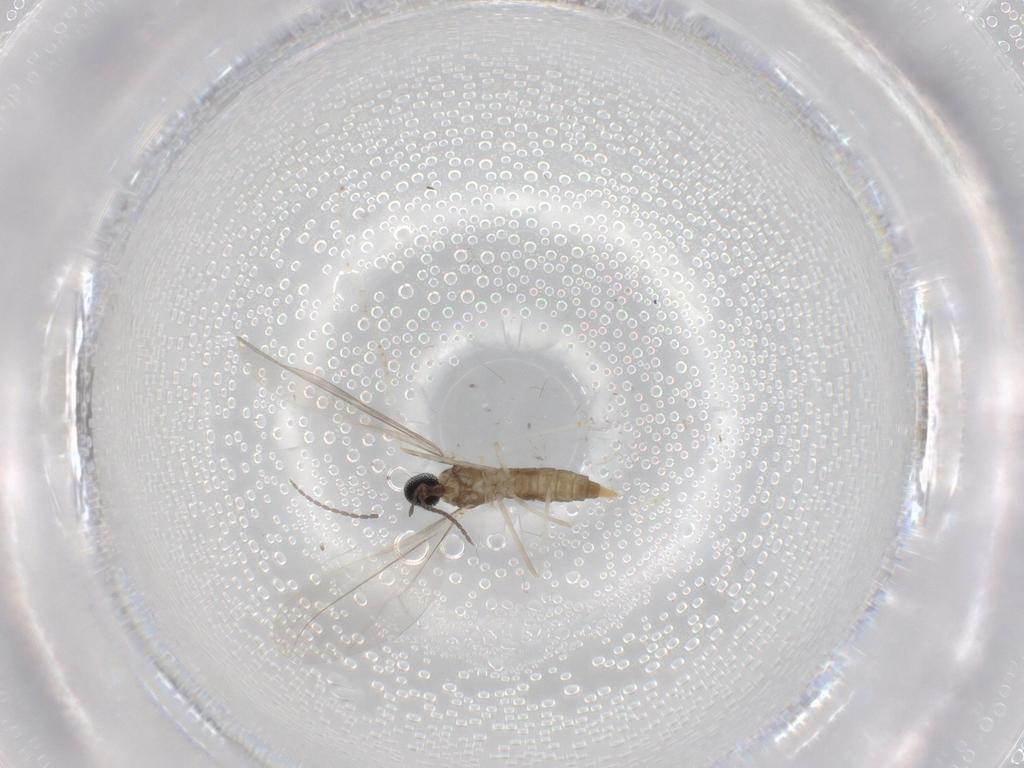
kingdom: Animalia
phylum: Arthropoda
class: Insecta
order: Diptera
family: Cecidomyiidae
